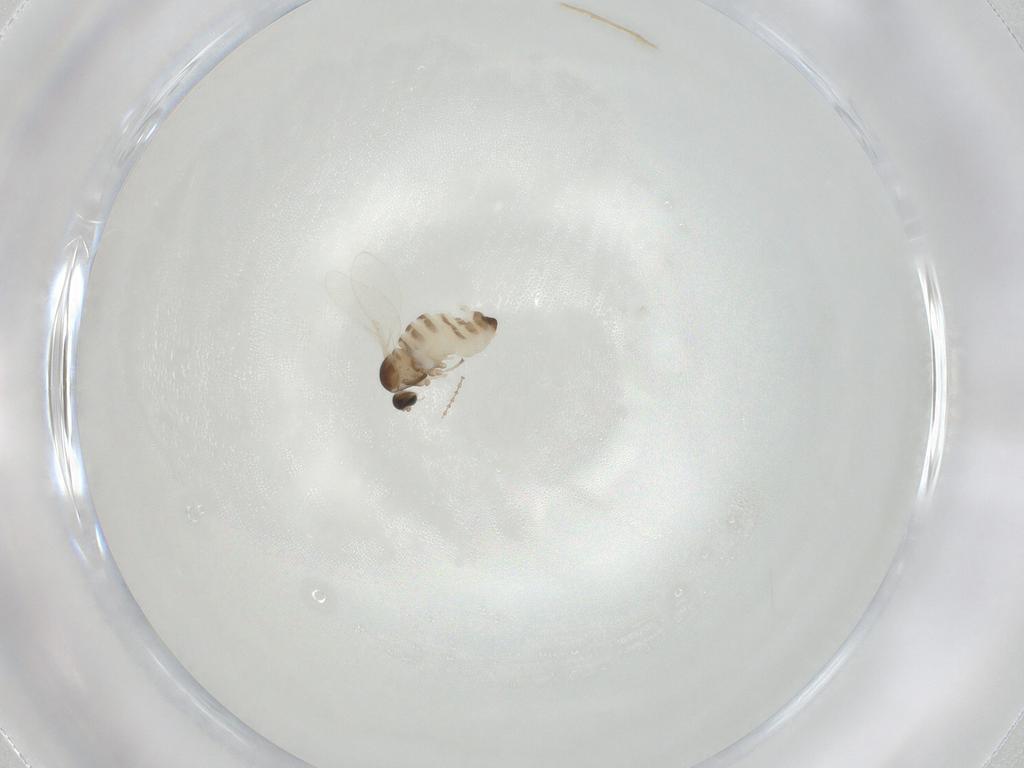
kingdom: Animalia
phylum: Arthropoda
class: Insecta
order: Diptera
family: Cecidomyiidae
